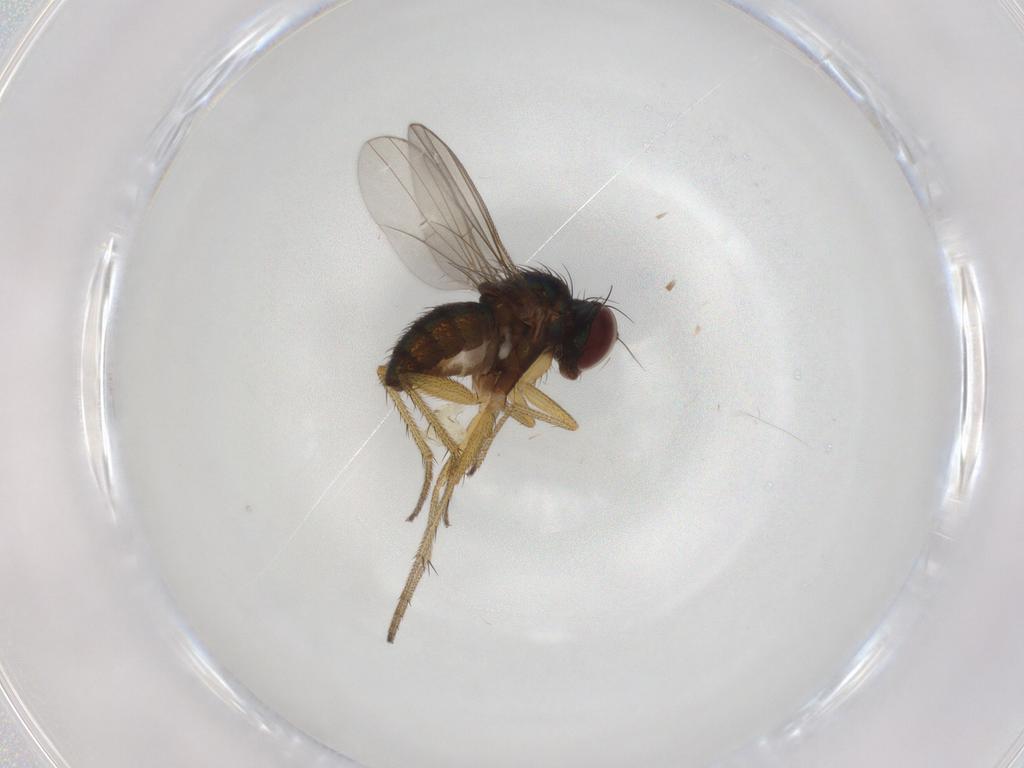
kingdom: Animalia
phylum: Arthropoda
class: Insecta
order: Diptera
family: Chironomidae
